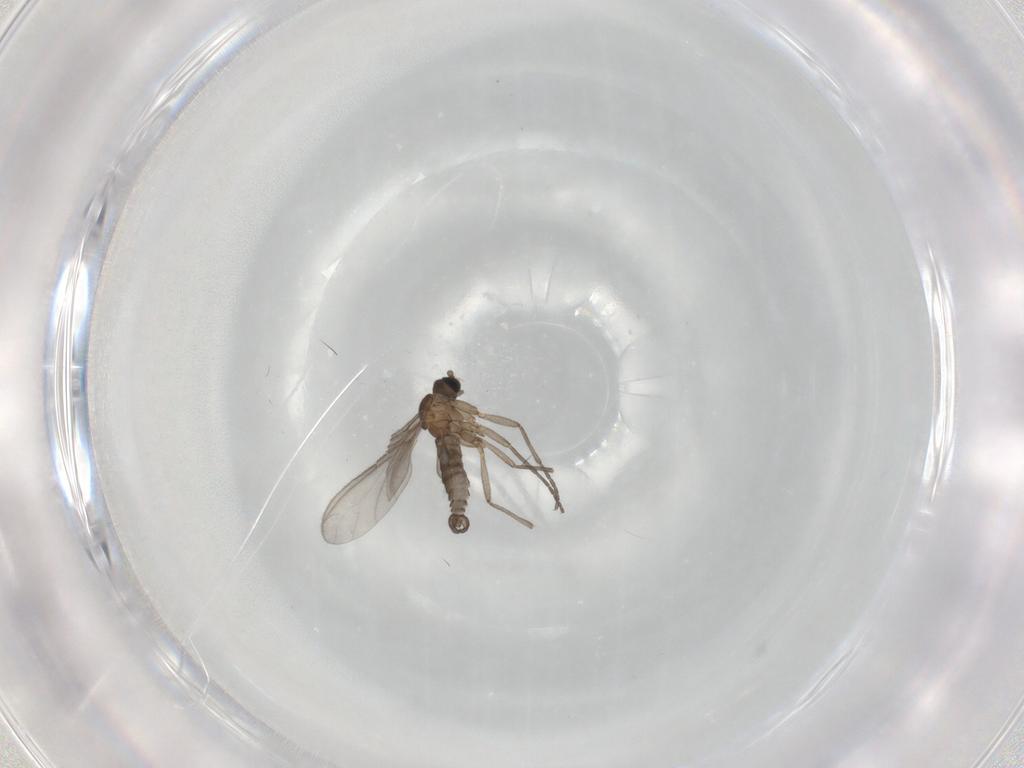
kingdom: Animalia
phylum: Arthropoda
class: Insecta
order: Diptera
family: Sciaridae
